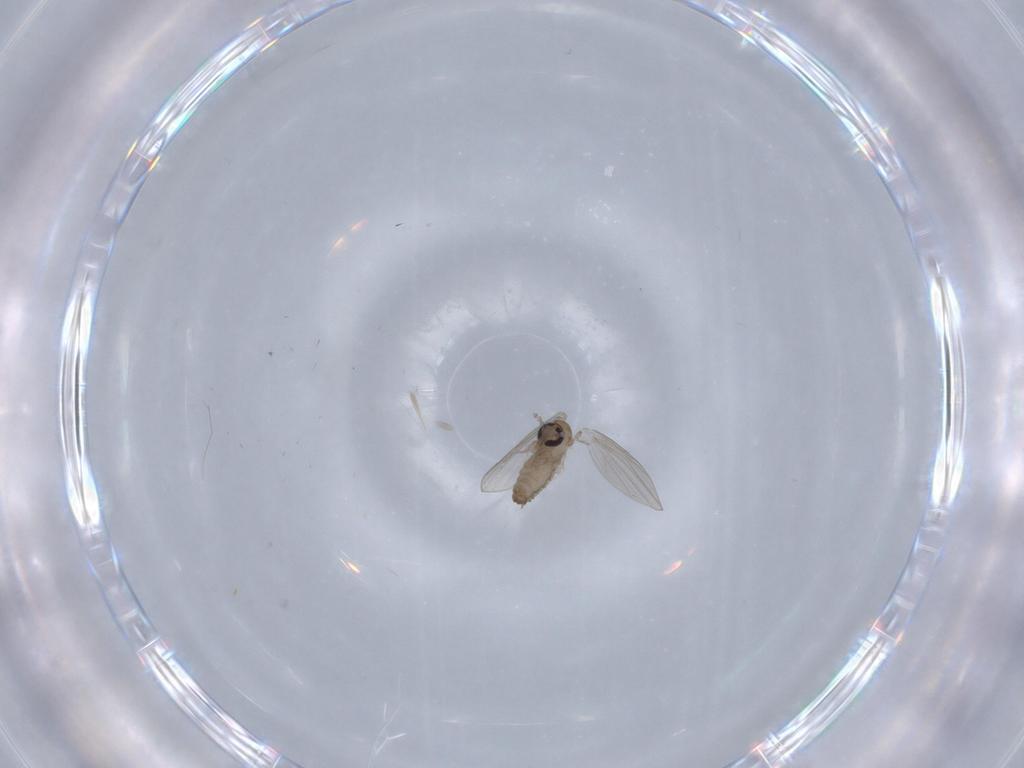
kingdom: Animalia
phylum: Arthropoda
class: Insecta
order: Diptera
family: Psychodidae
